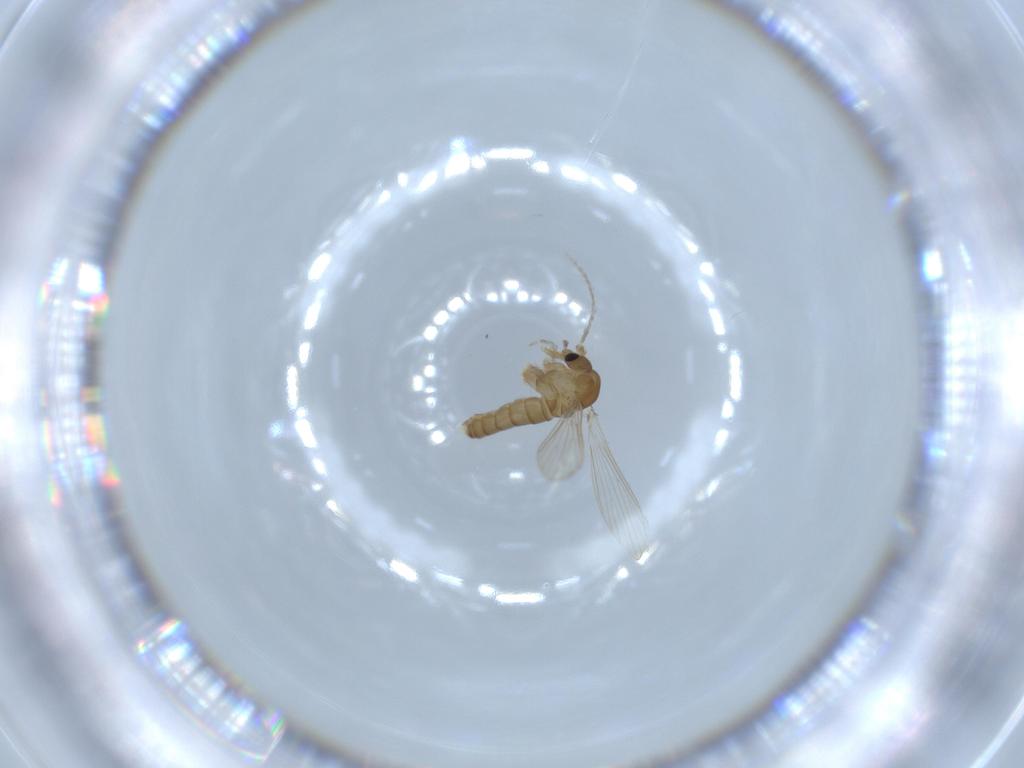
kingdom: Animalia
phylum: Arthropoda
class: Insecta
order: Diptera
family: Psychodidae
